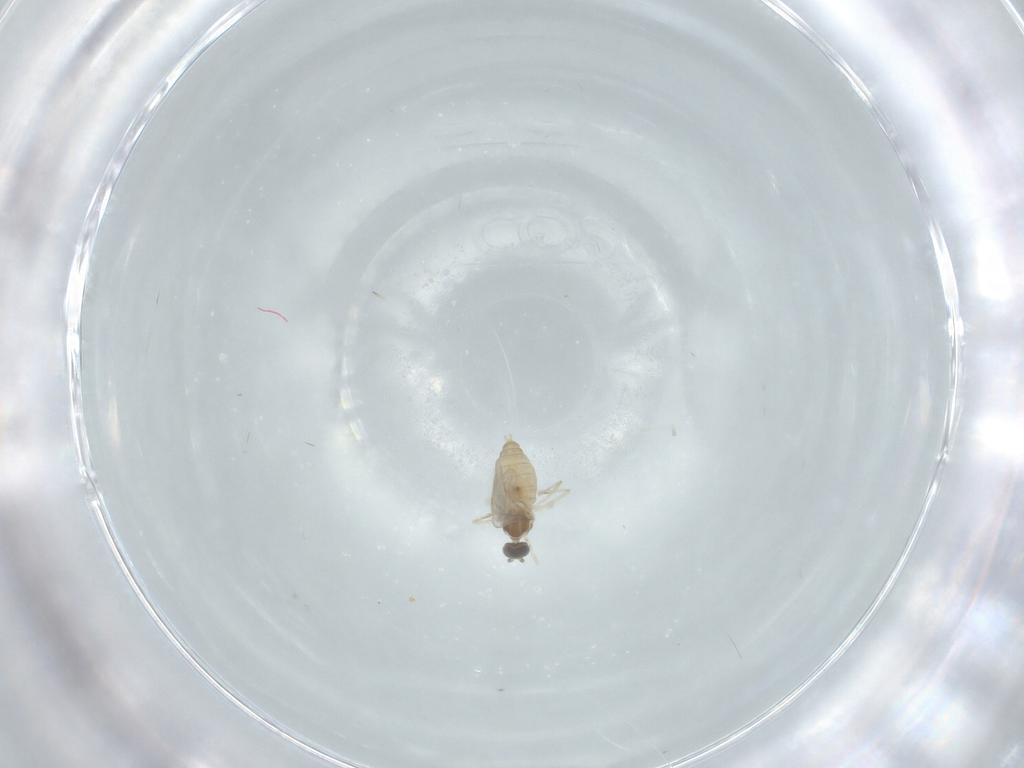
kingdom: Animalia
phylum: Arthropoda
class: Insecta
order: Diptera
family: Cecidomyiidae
